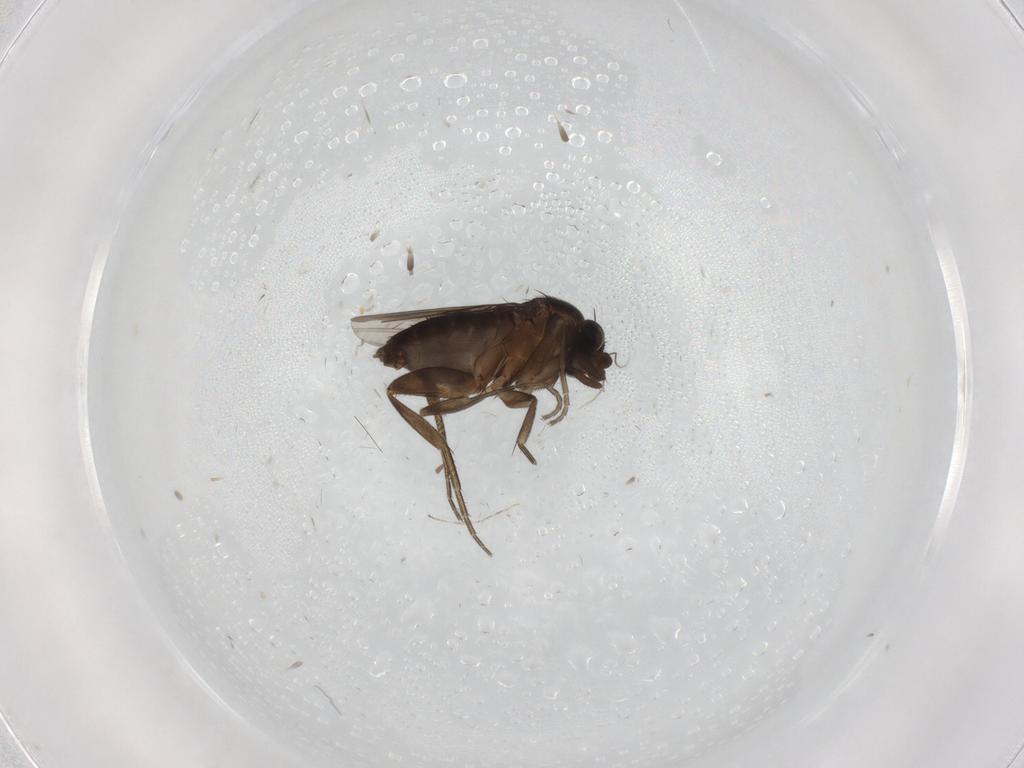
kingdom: Animalia
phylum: Arthropoda
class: Insecta
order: Diptera
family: Phoridae
